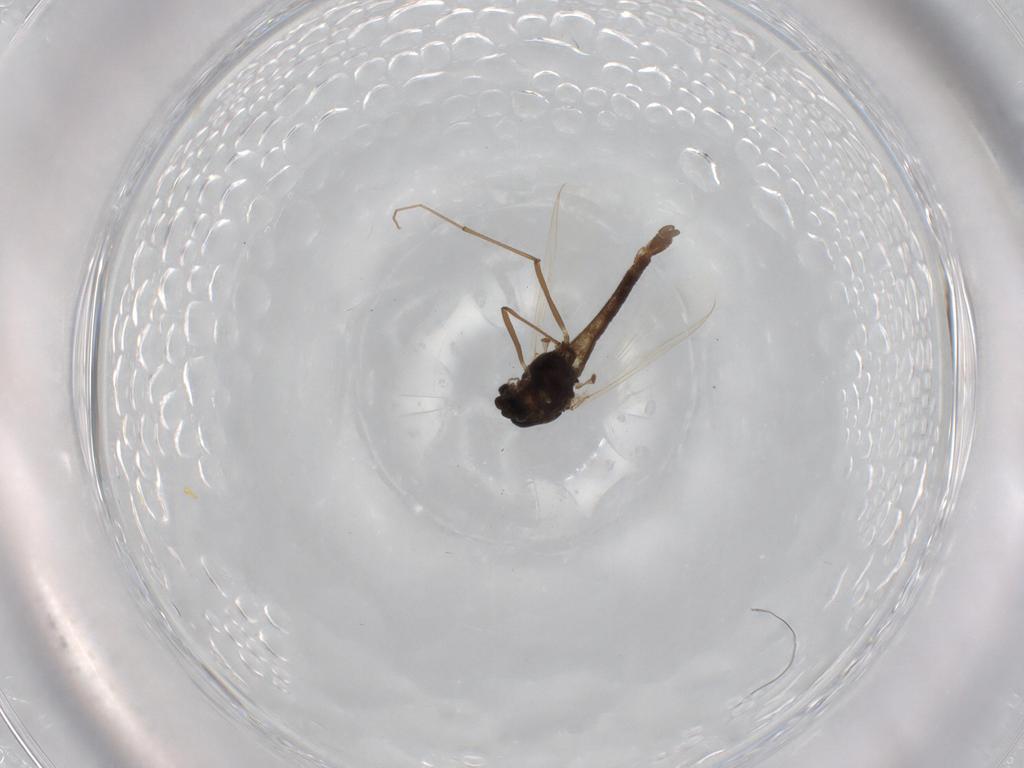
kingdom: Animalia
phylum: Arthropoda
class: Insecta
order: Diptera
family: Chironomidae
